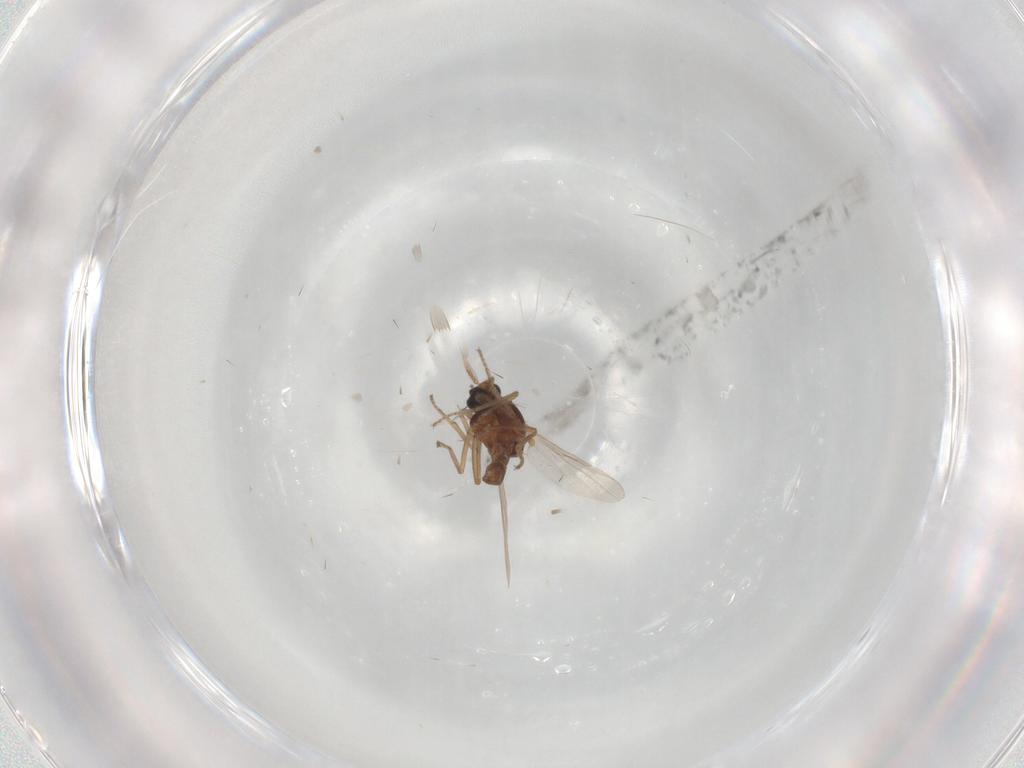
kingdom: Animalia
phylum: Arthropoda
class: Insecta
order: Diptera
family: Ceratopogonidae
